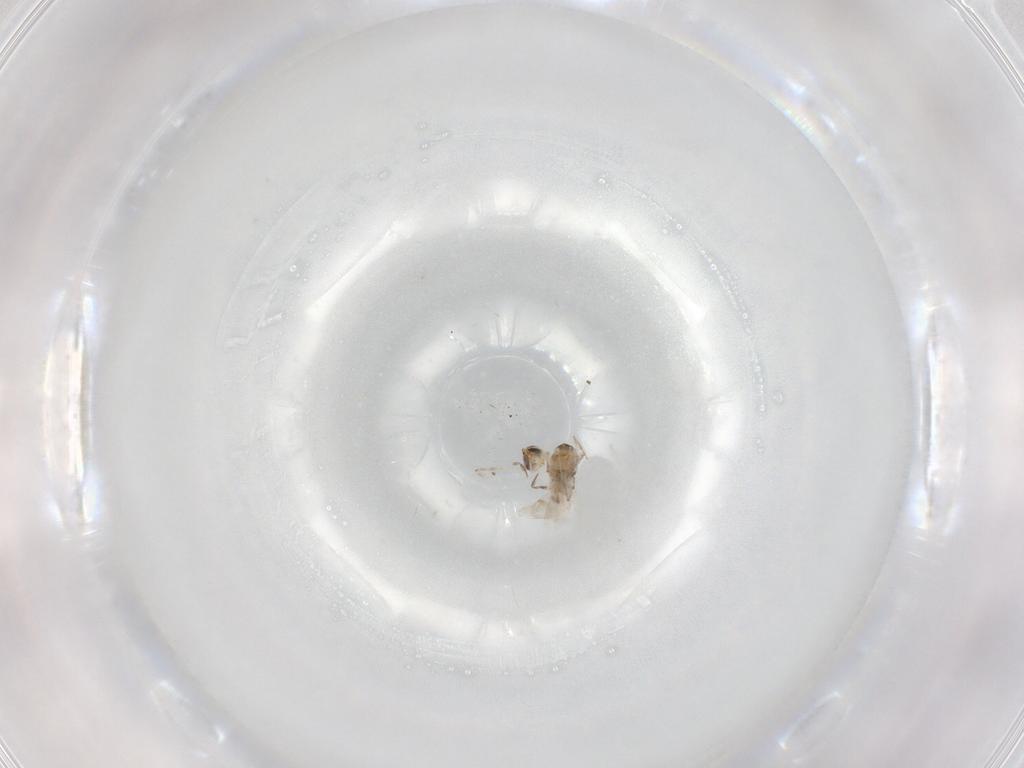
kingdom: Animalia
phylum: Arthropoda
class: Insecta
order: Hymenoptera
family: Encyrtidae
